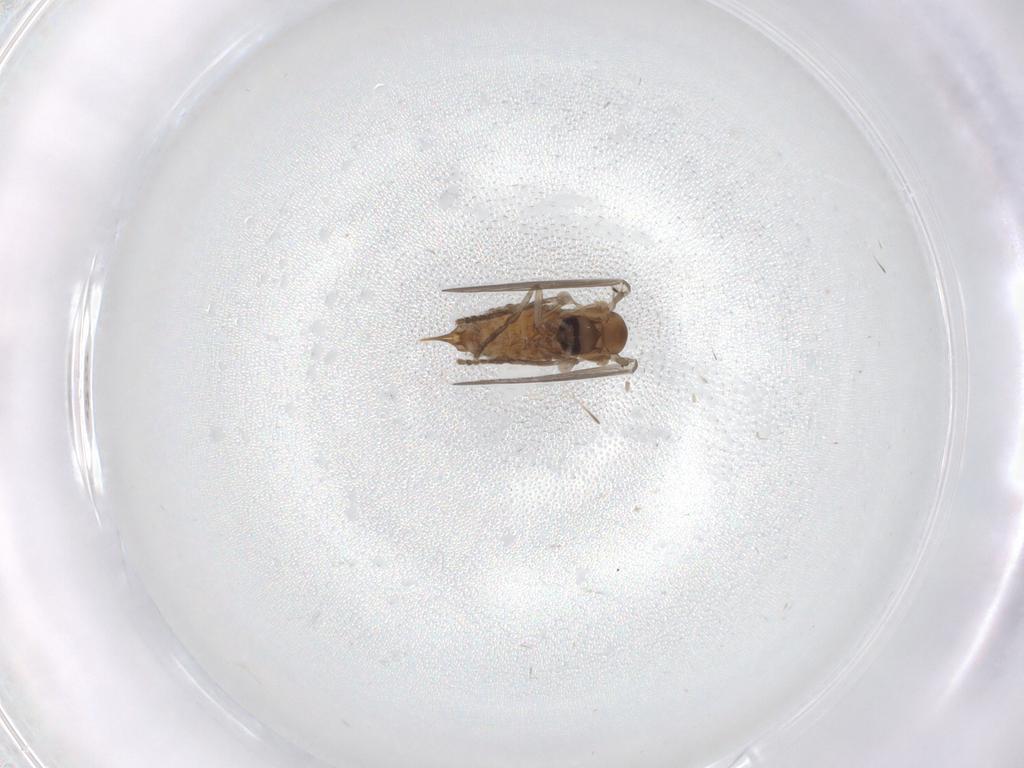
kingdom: Animalia
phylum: Arthropoda
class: Insecta
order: Diptera
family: Psychodidae
